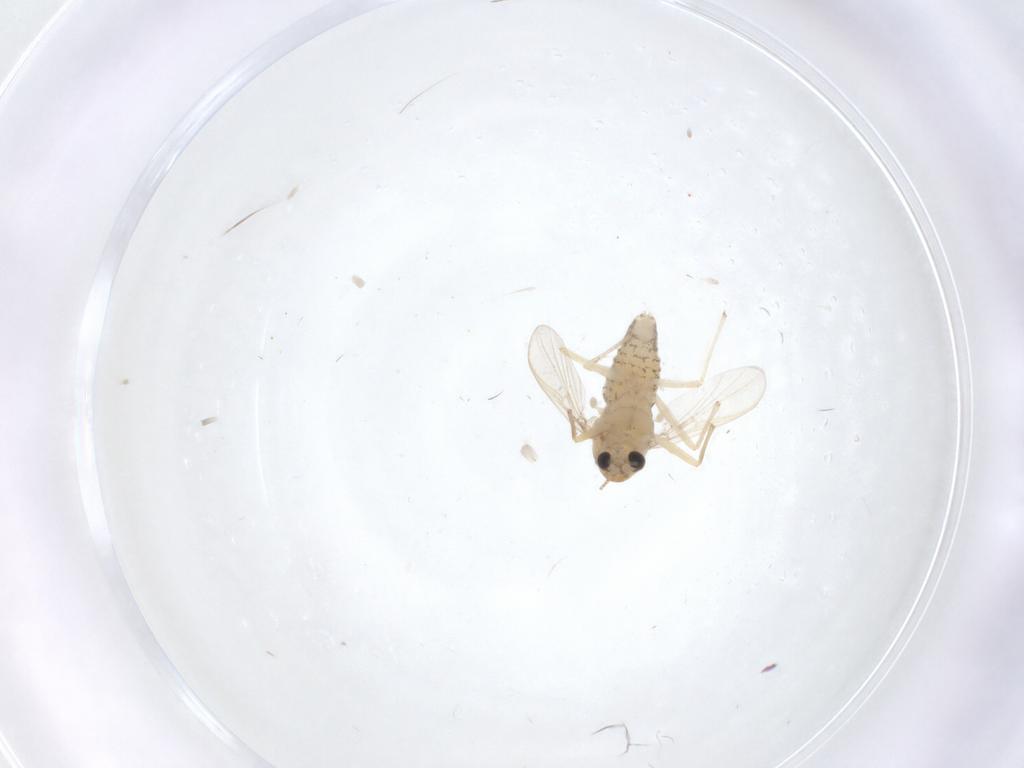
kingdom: Animalia
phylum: Arthropoda
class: Insecta
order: Diptera
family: Chironomidae
